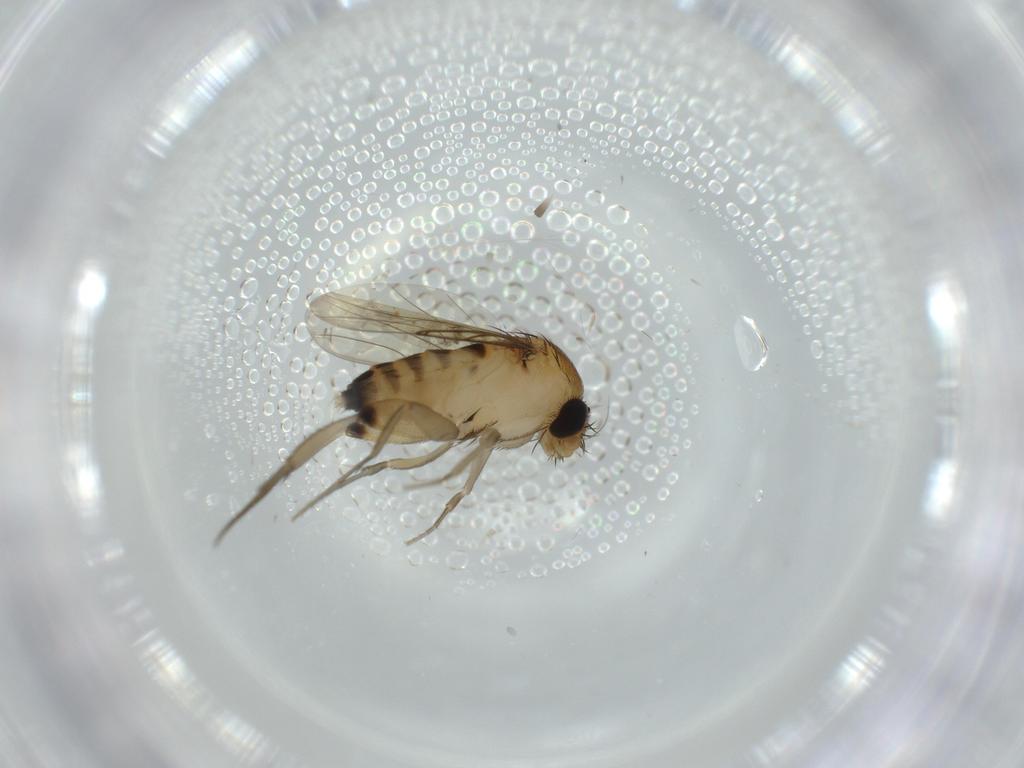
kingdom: Animalia
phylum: Arthropoda
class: Insecta
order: Diptera
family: Phoridae
